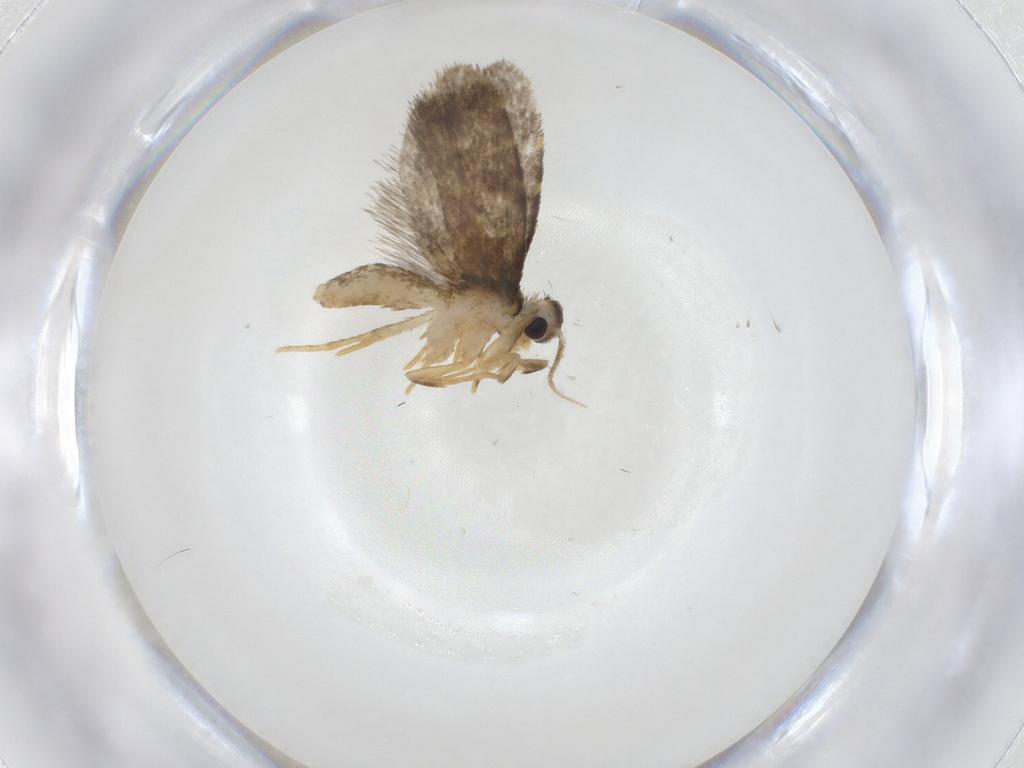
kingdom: Animalia
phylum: Arthropoda
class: Insecta
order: Lepidoptera
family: Psychidae
